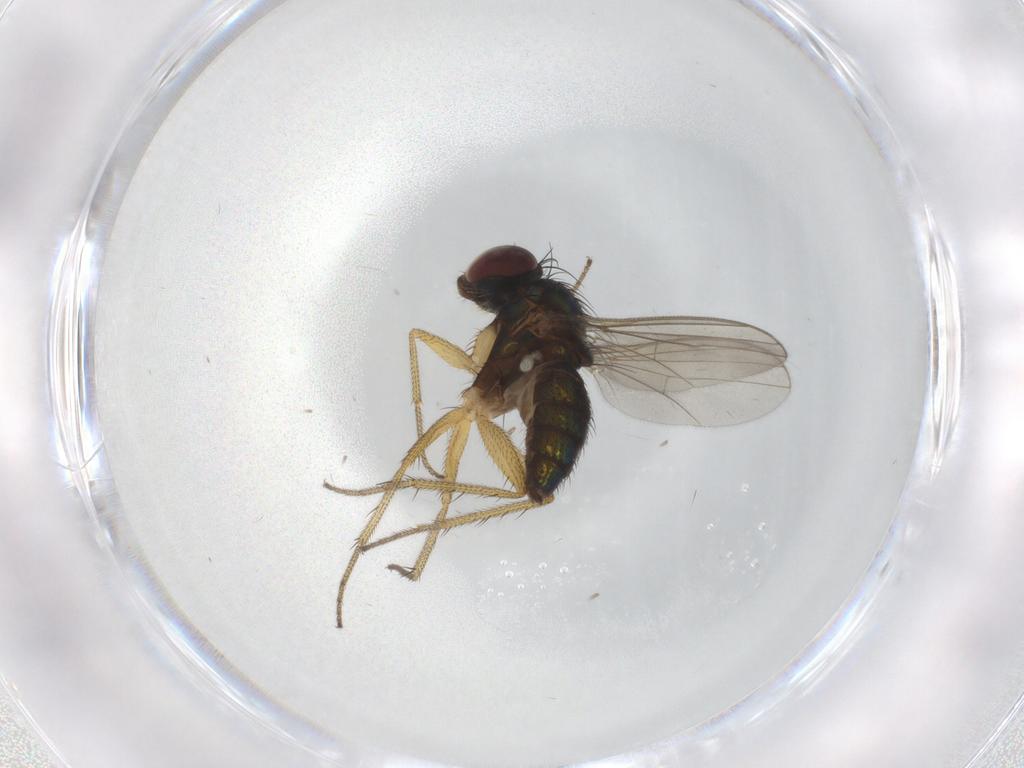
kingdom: Animalia
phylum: Arthropoda
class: Insecta
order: Diptera
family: Dolichopodidae
